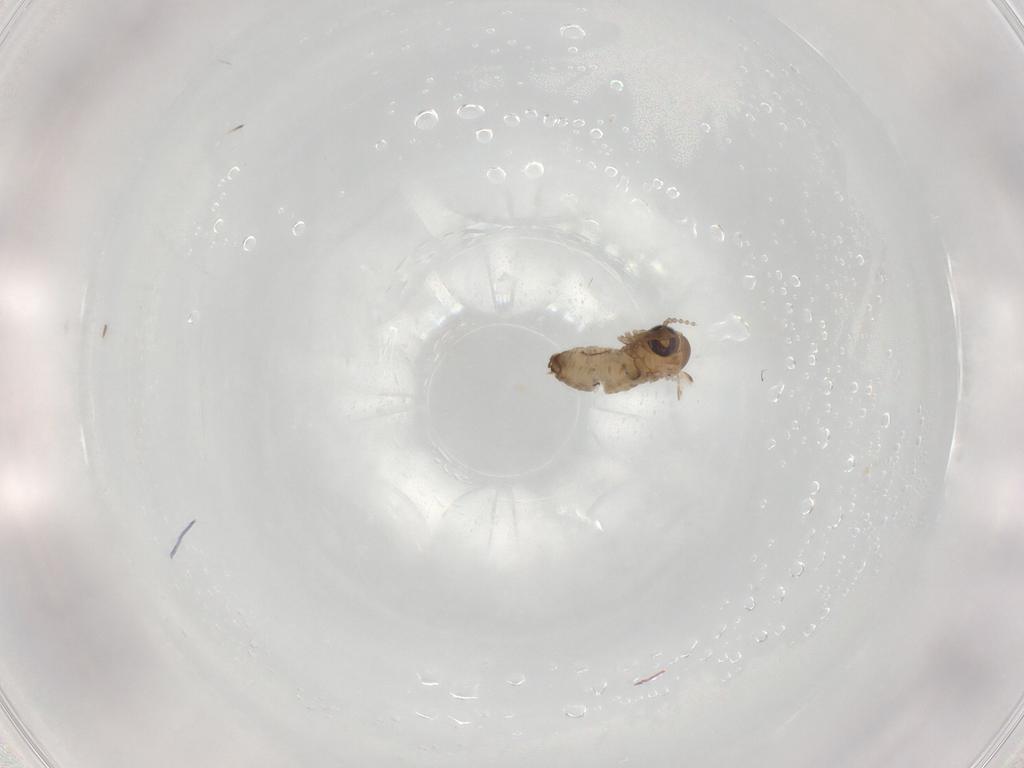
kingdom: Animalia
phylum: Arthropoda
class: Insecta
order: Diptera
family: Psychodidae
